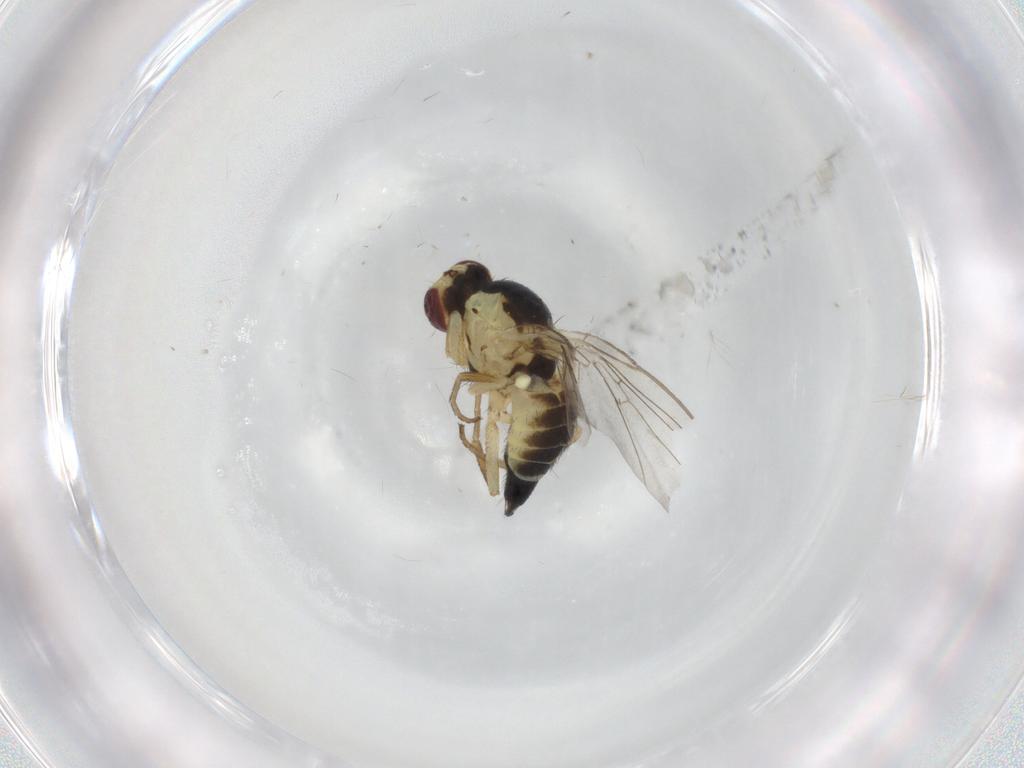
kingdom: Animalia
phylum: Arthropoda
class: Insecta
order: Diptera
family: Agromyzidae
